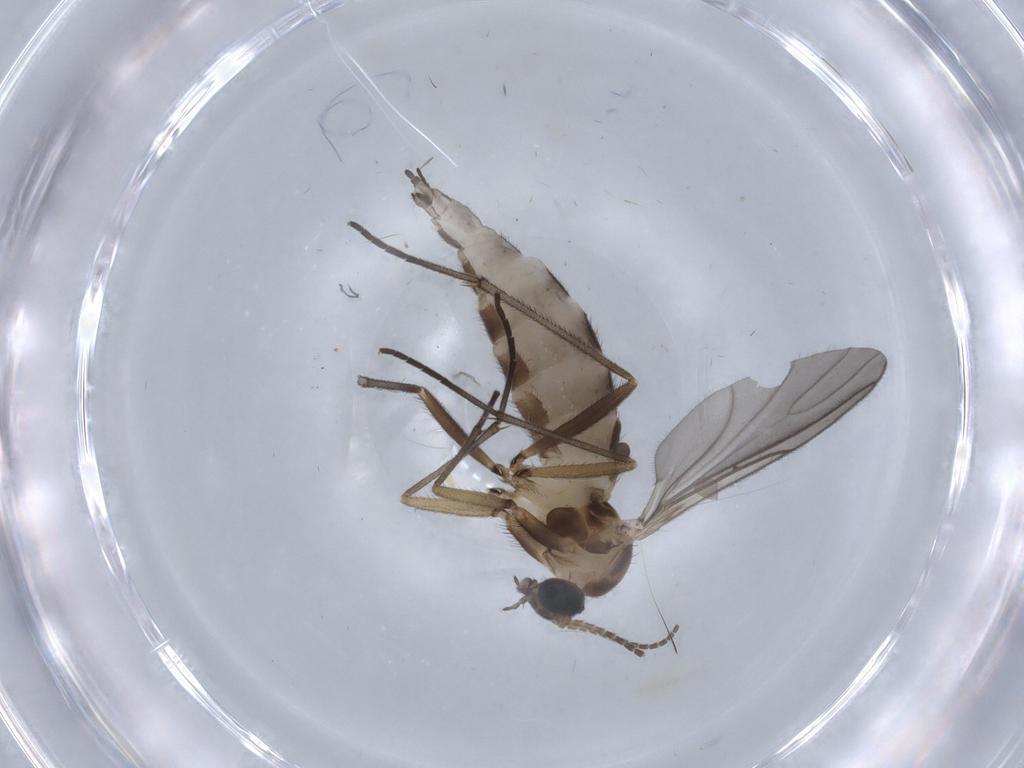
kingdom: Animalia
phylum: Arthropoda
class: Insecta
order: Diptera
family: Sciaridae
